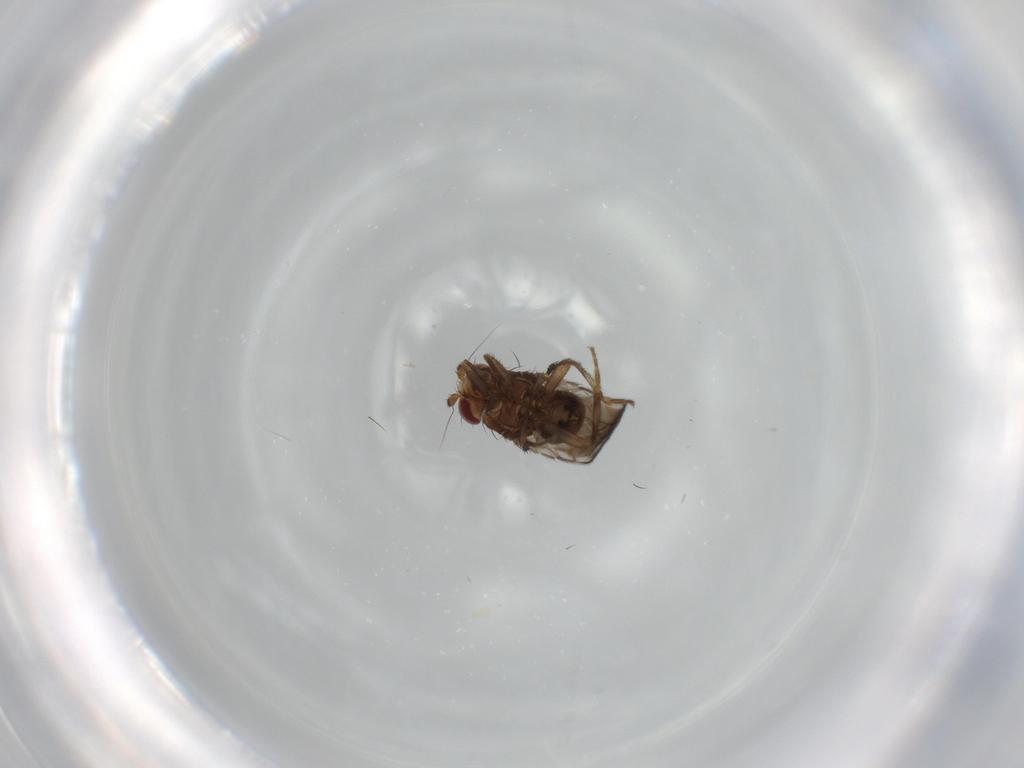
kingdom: Animalia
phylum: Arthropoda
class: Insecta
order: Diptera
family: Sphaeroceridae
